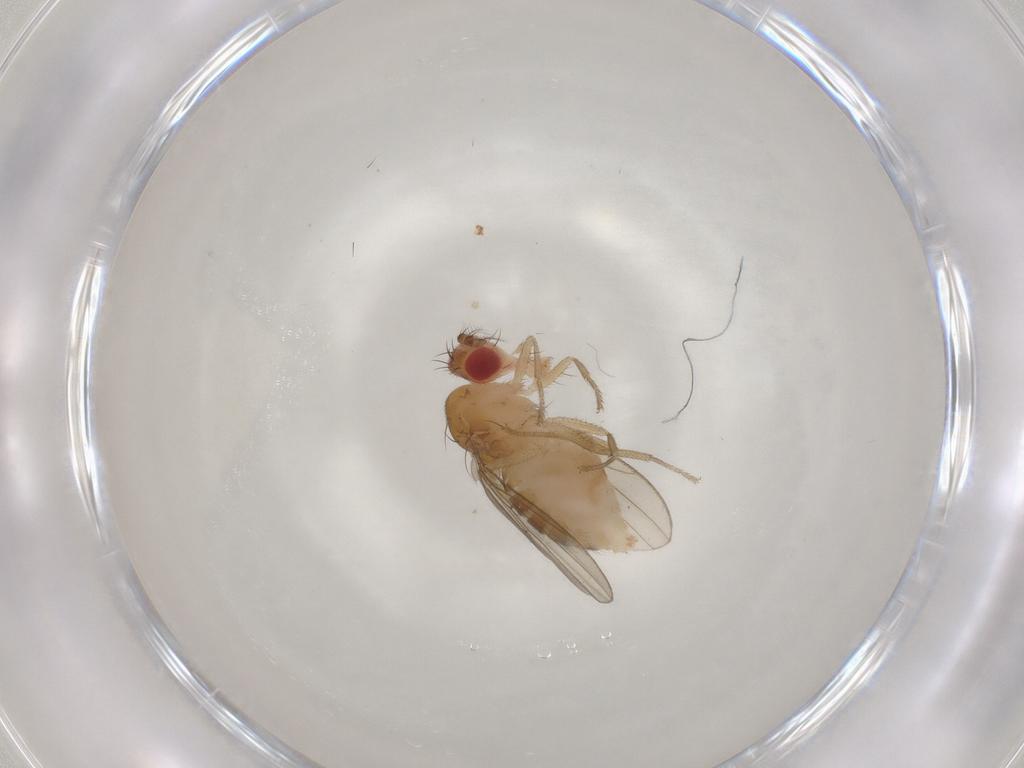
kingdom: Animalia
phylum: Arthropoda
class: Insecta
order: Diptera
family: Drosophilidae
